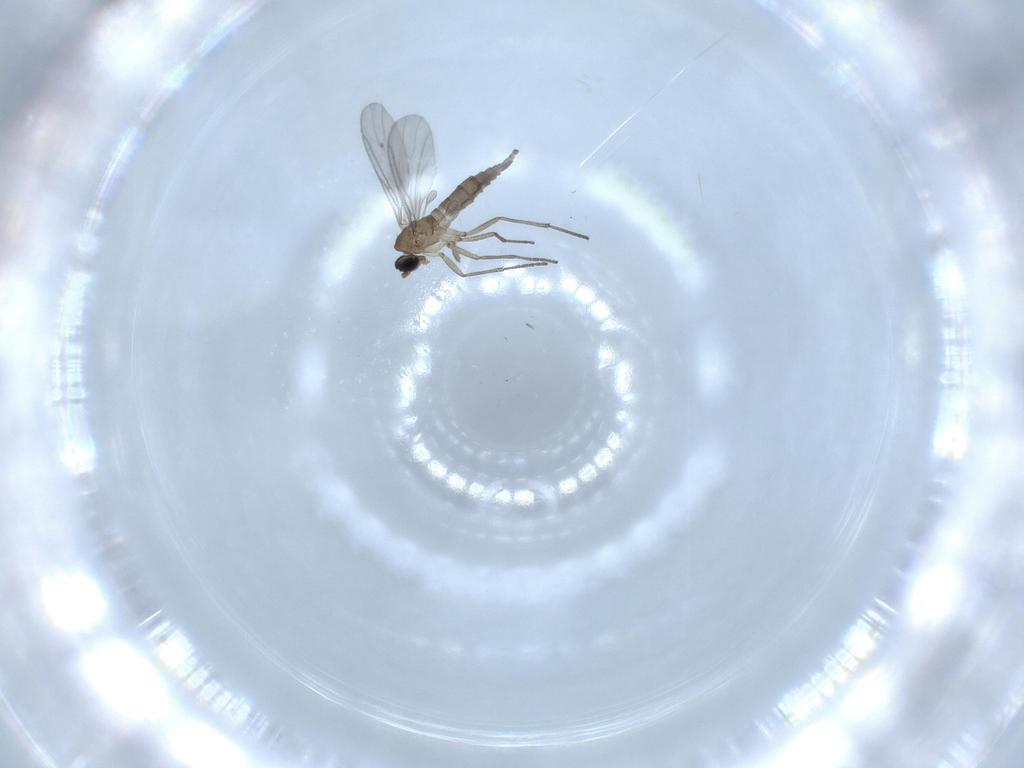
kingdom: Animalia
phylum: Arthropoda
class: Insecta
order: Diptera
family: Sciaridae
